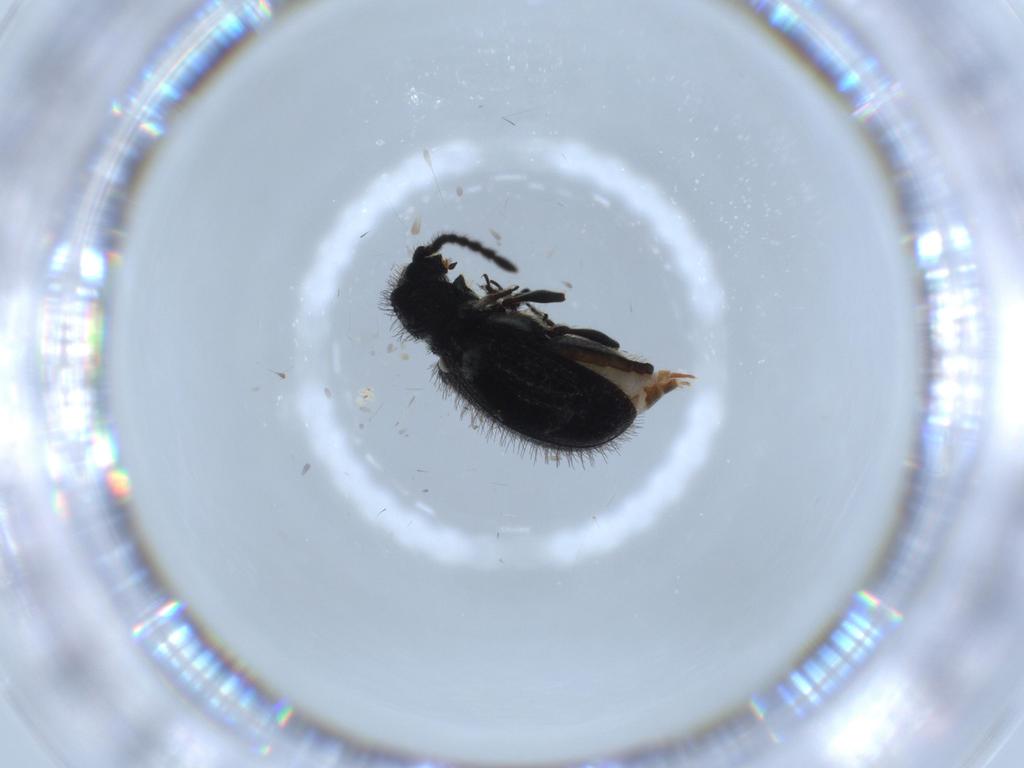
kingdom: Animalia
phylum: Arthropoda
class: Insecta
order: Coleoptera
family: Ptinidae
